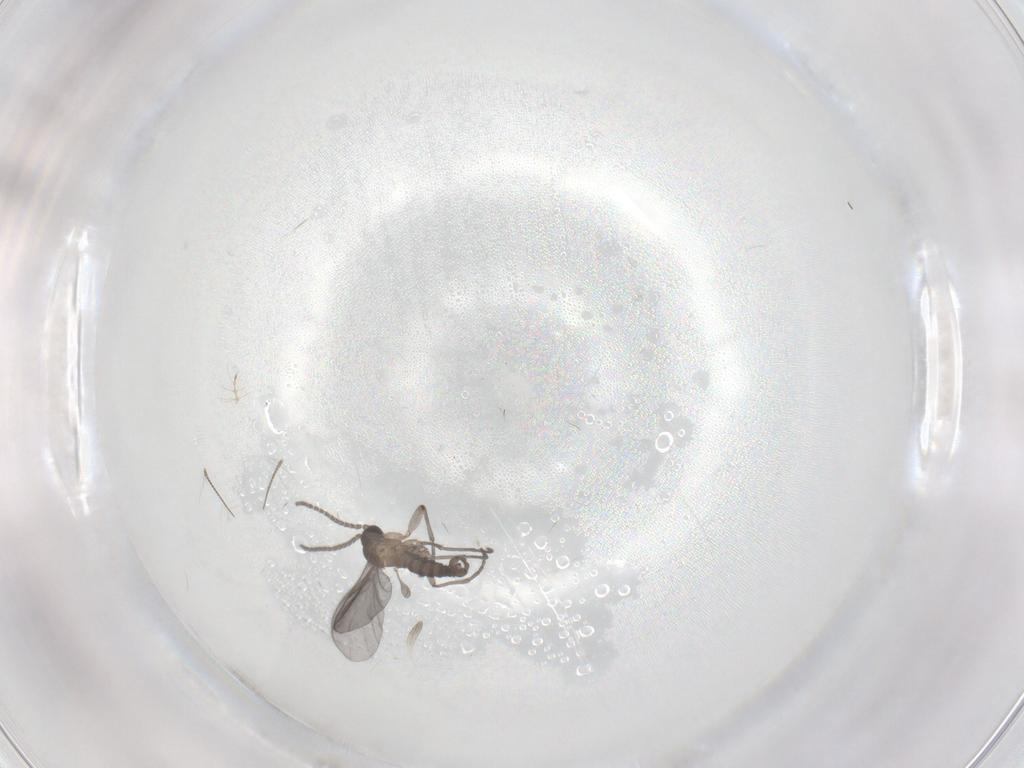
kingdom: Animalia
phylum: Arthropoda
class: Insecta
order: Diptera
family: Sciaridae
